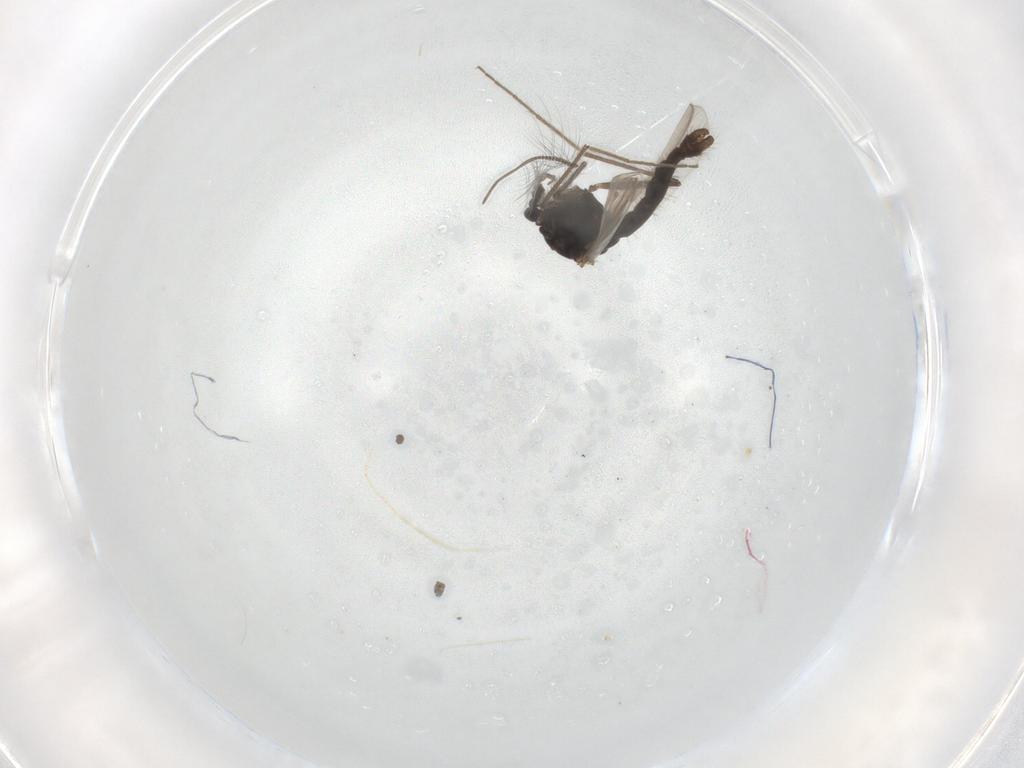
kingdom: Animalia
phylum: Arthropoda
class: Insecta
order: Diptera
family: Chironomidae
